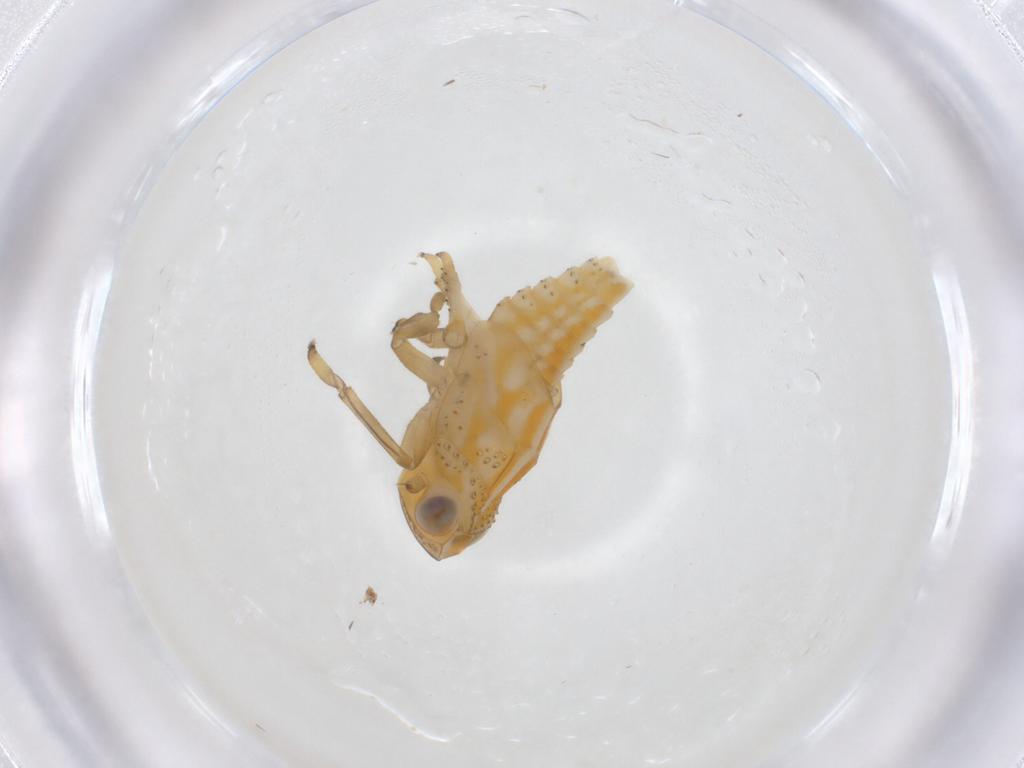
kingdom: Animalia
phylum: Arthropoda
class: Insecta
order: Hemiptera
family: Issidae
